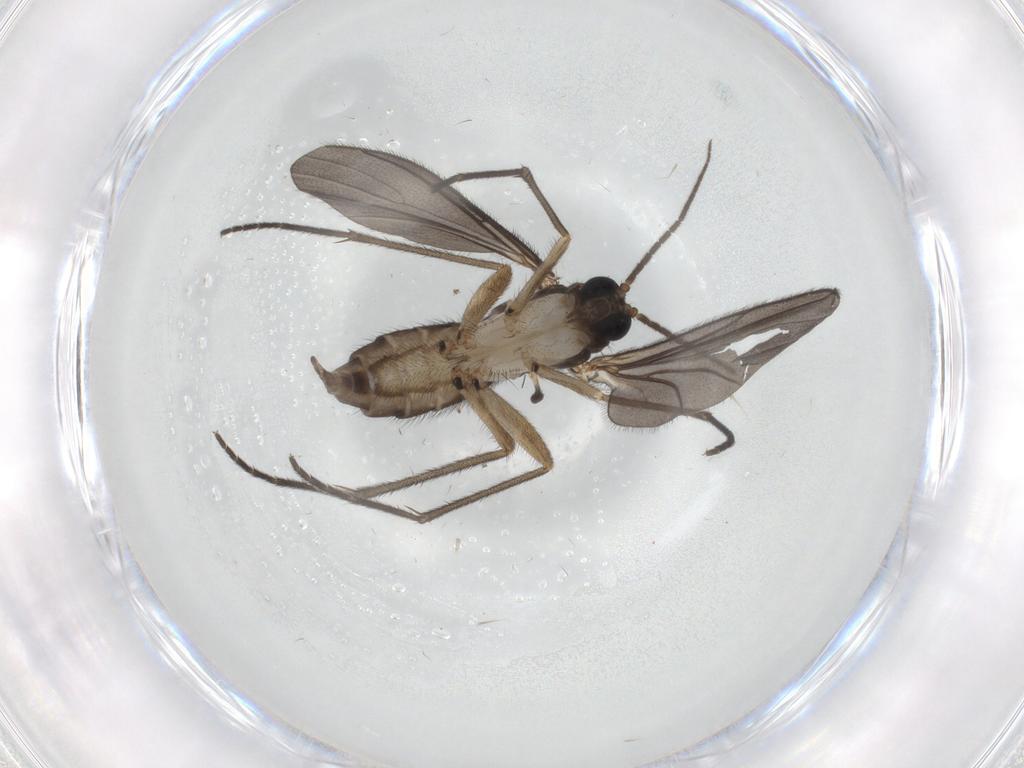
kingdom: Animalia
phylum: Arthropoda
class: Insecta
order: Diptera
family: Sciaridae
